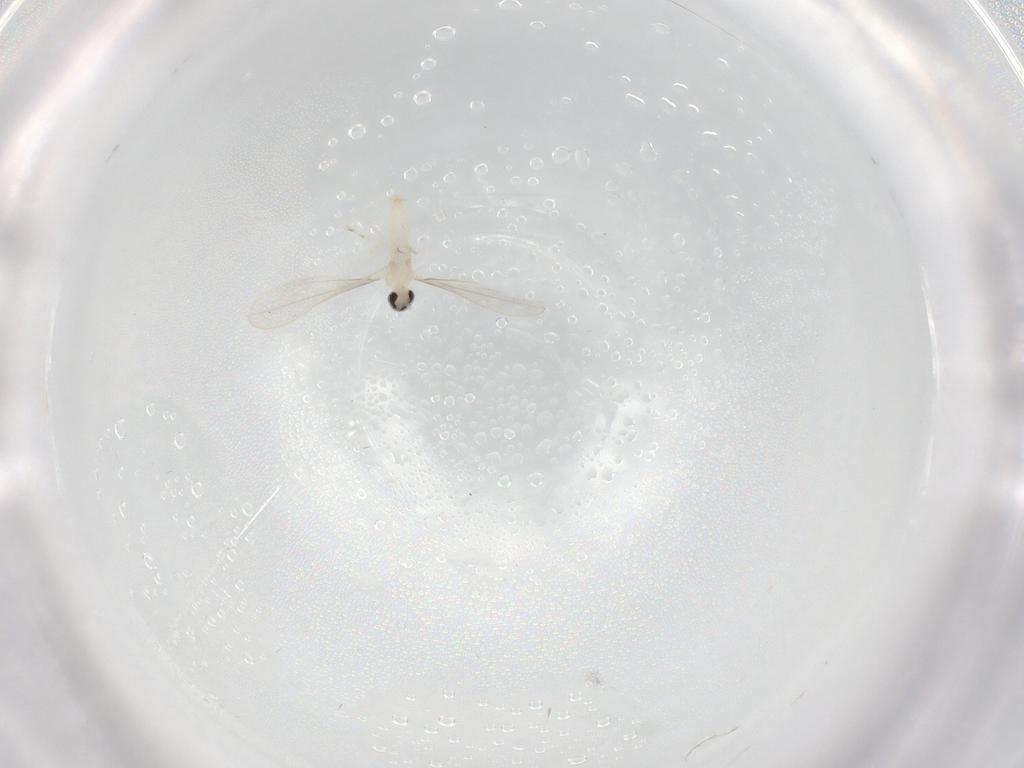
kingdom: Animalia
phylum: Arthropoda
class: Insecta
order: Diptera
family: Cecidomyiidae
